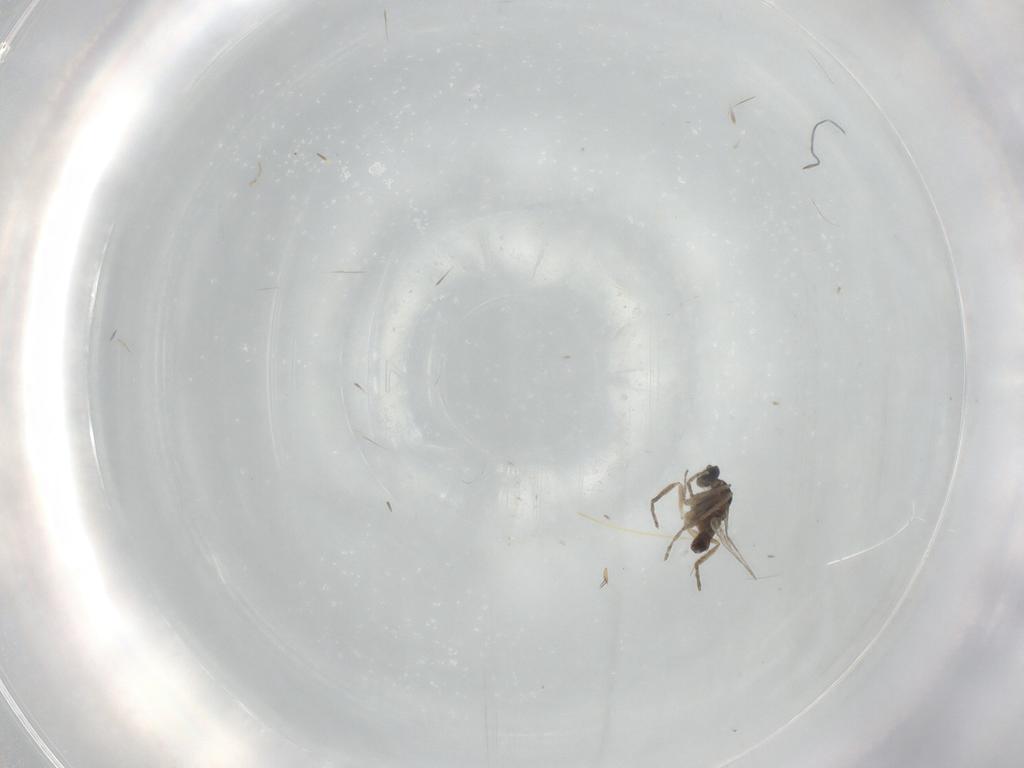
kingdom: Animalia
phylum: Arthropoda
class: Insecta
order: Diptera
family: Cecidomyiidae
